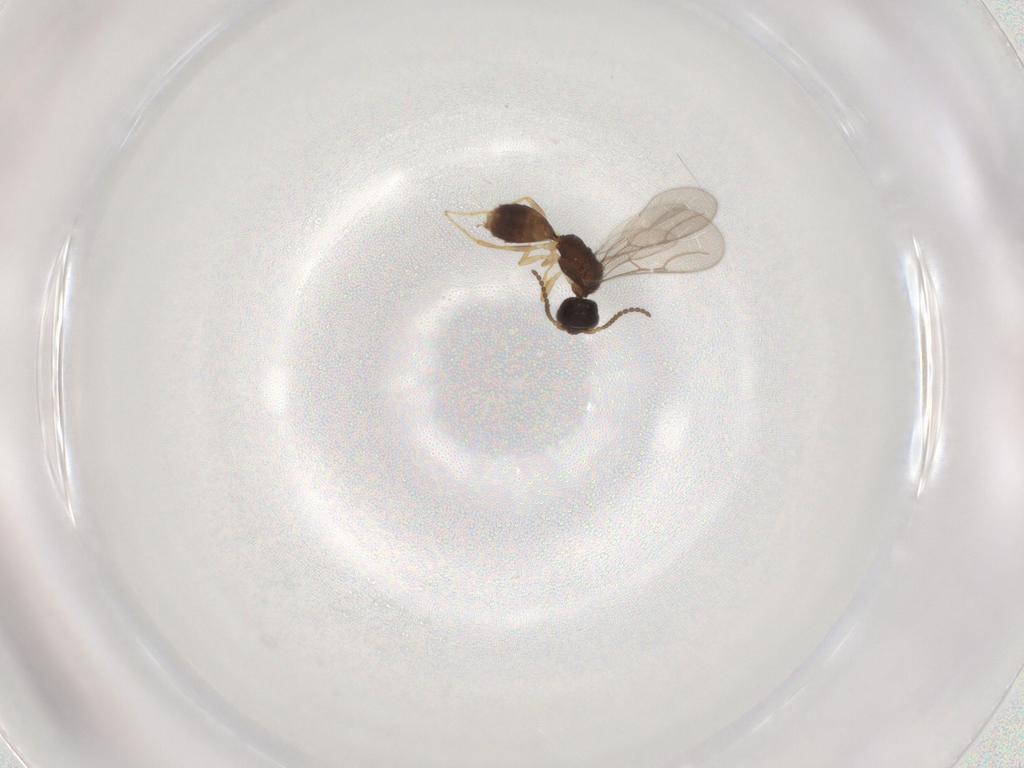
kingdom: Animalia
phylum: Arthropoda
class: Insecta
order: Hymenoptera
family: Diparidae
